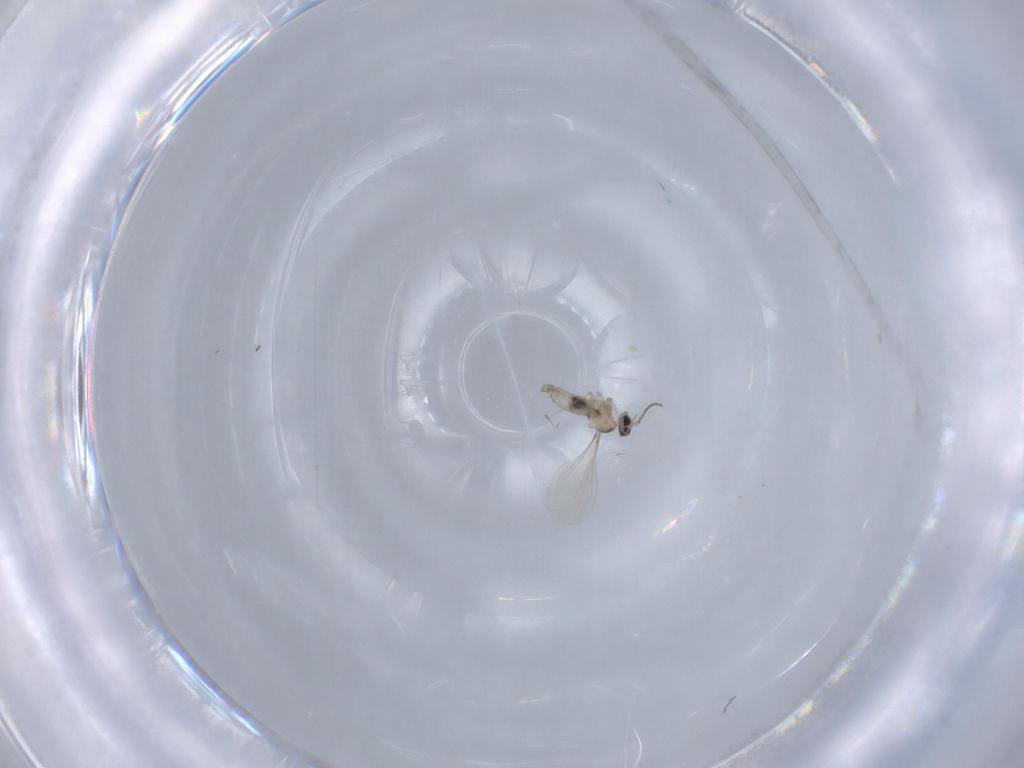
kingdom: Animalia
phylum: Arthropoda
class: Insecta
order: Diptera
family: Cecidomyiidae
